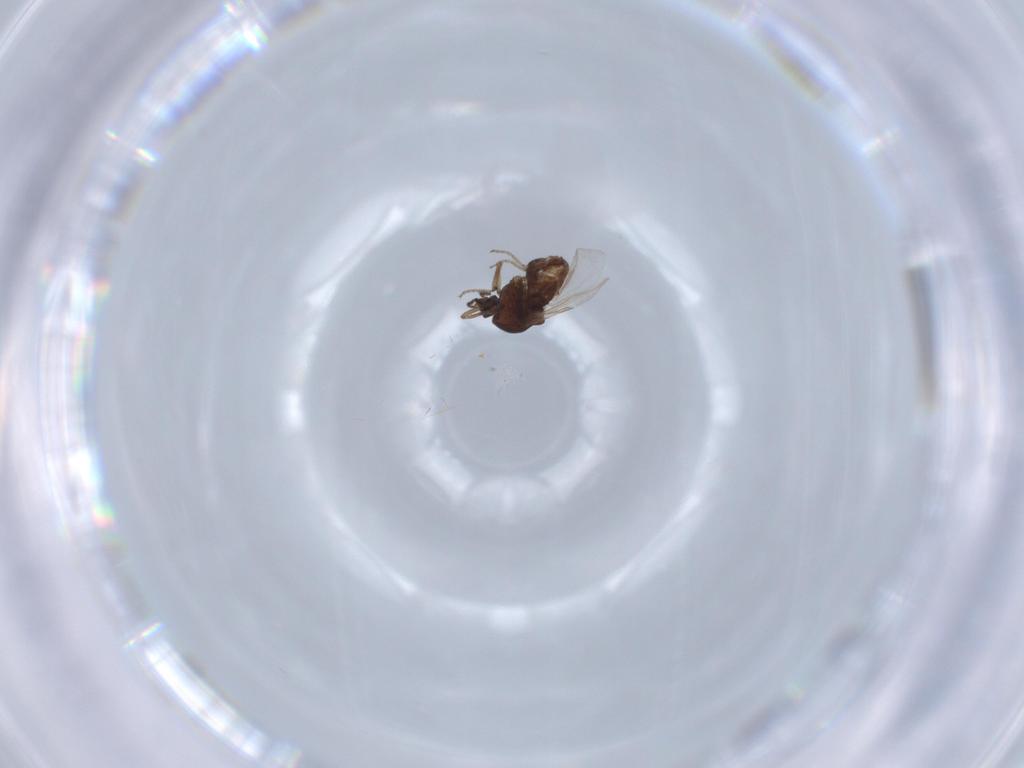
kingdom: Animalia
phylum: Arthropoda
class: Insecta
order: Diptera
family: Ceratopogonidae
